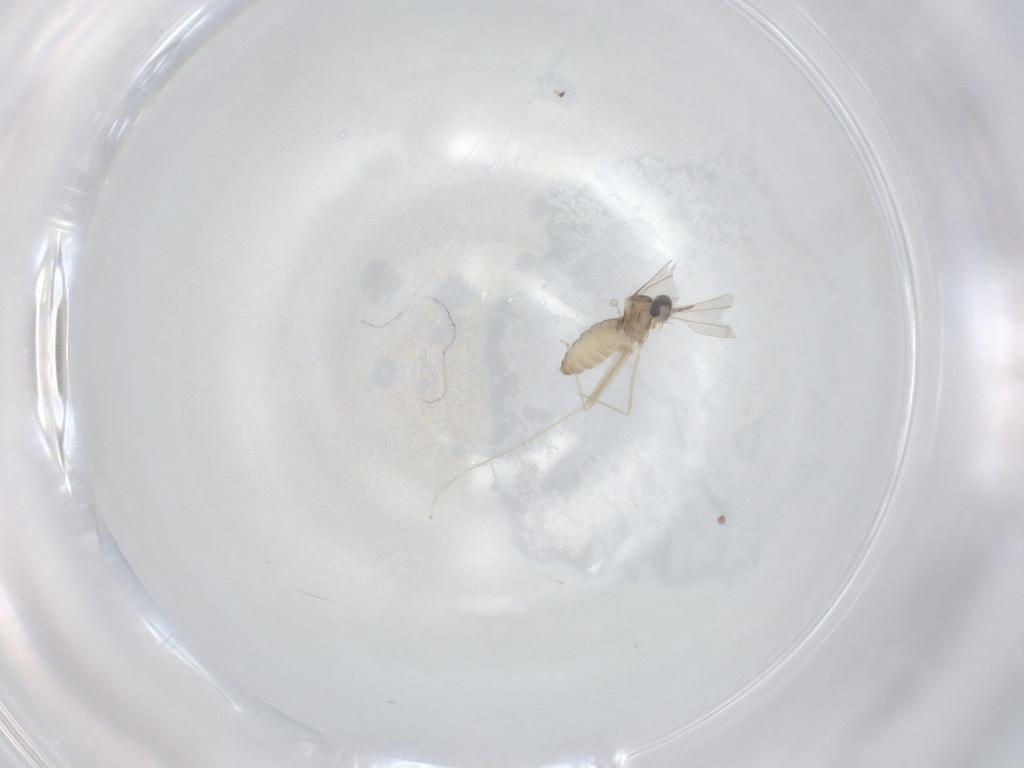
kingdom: Animalia
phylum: Arthropoda
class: Insecta
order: Diptera
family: Cecidomyiidae
